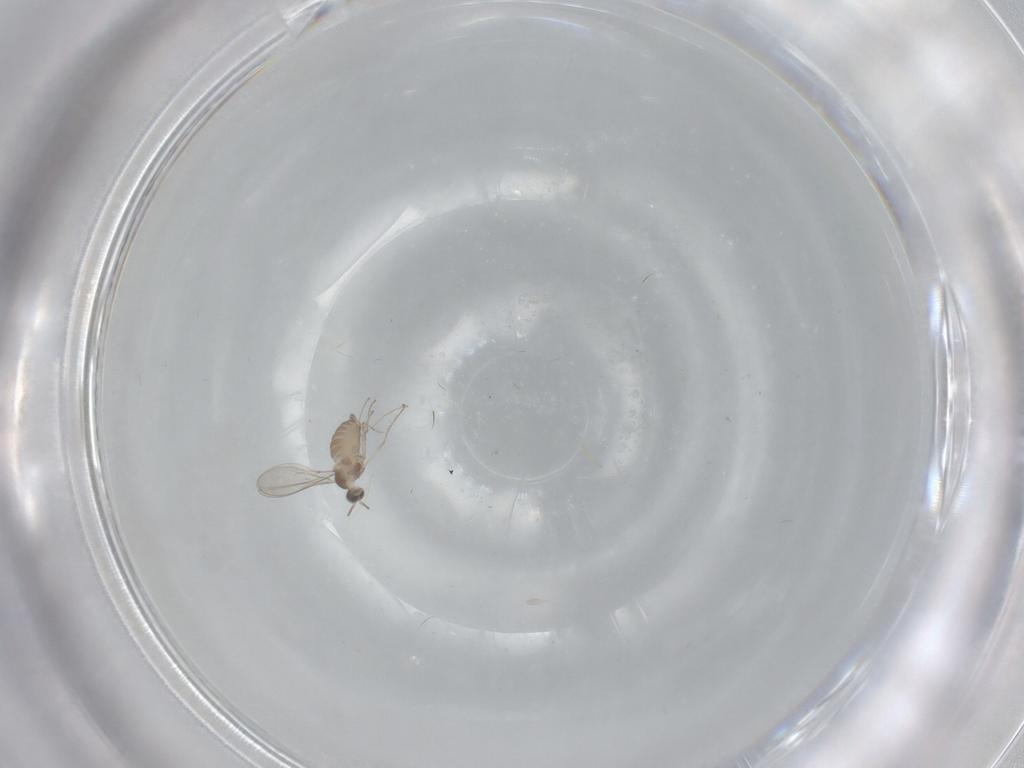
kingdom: Animalia
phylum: Arthropoda
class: Insecta
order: Diptera
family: Cecidomyiidae
